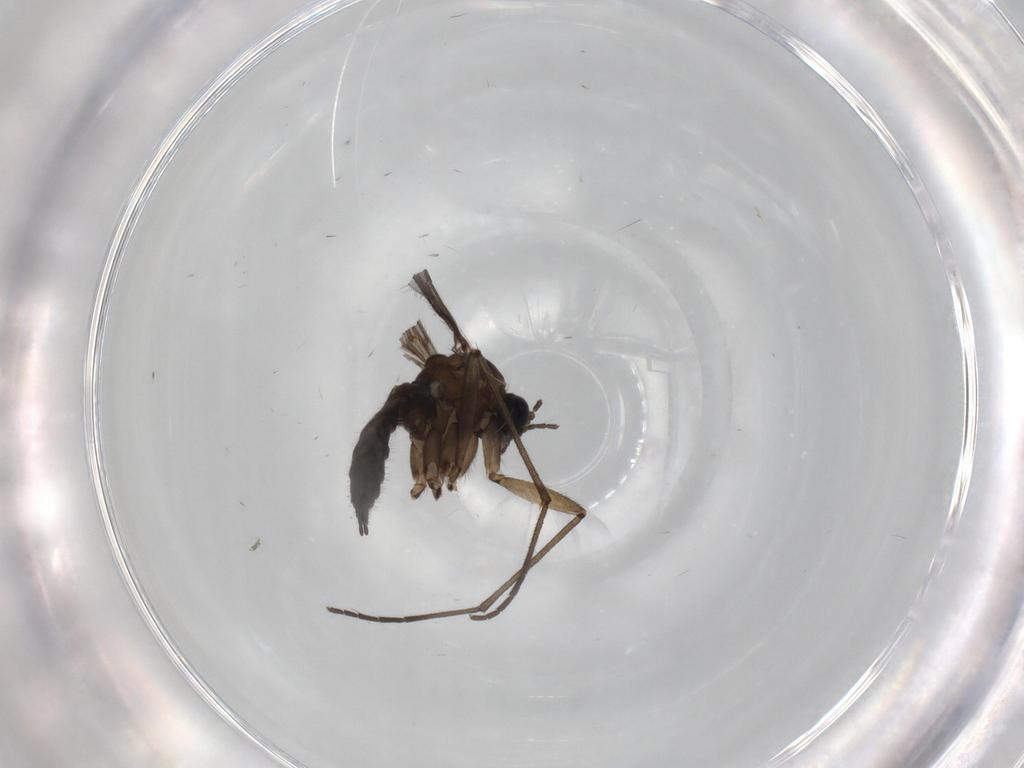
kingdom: Animalia
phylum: Arthropoda
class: Insecta
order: Diptera
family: Sciaridae
